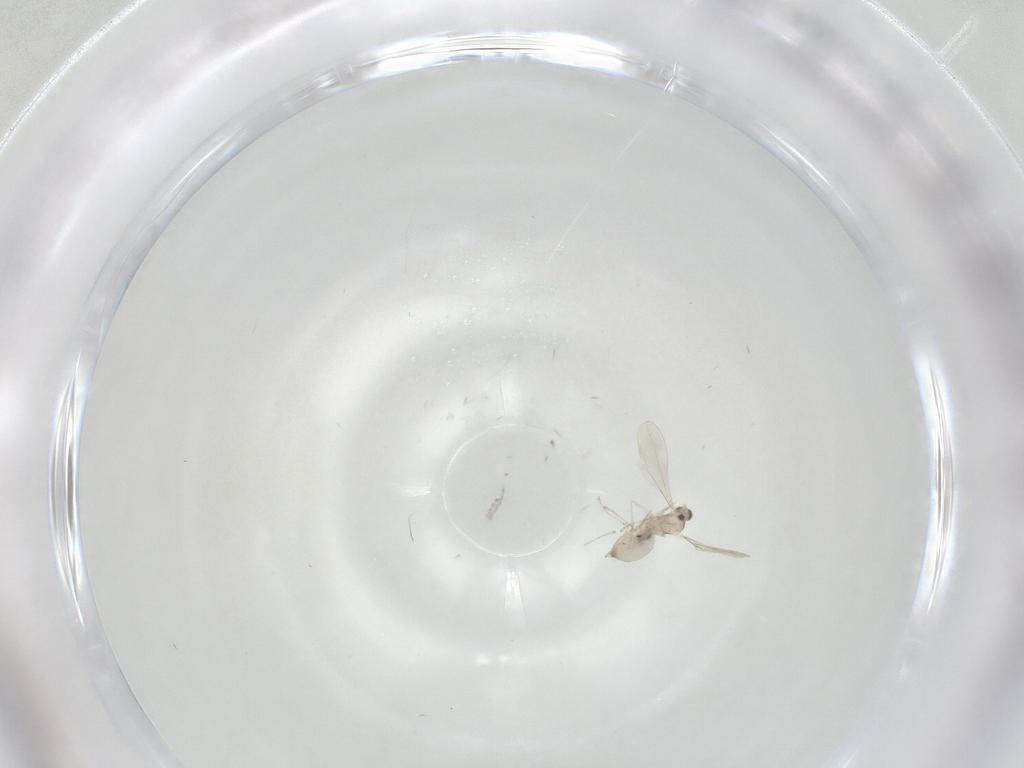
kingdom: Animalia
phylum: Arthropoda
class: Insecta
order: Diptera
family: Cecidomyiidae
